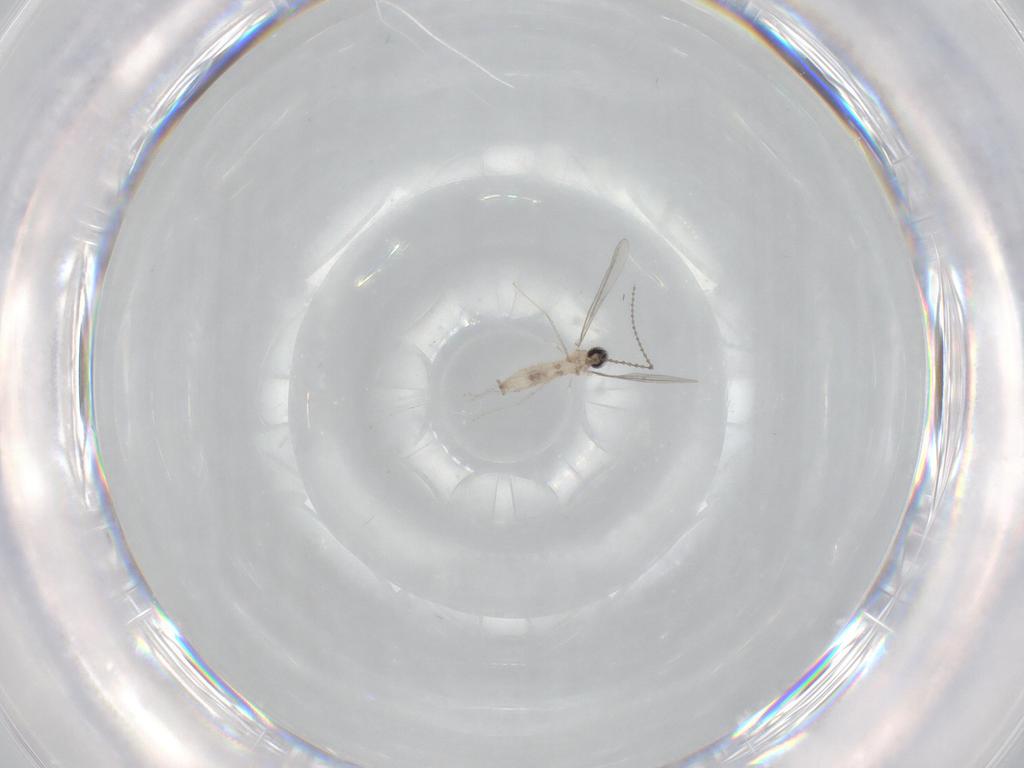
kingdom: Animalia
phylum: Arthropoda
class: Insecta
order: Diptera
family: Cecidomyiidae
